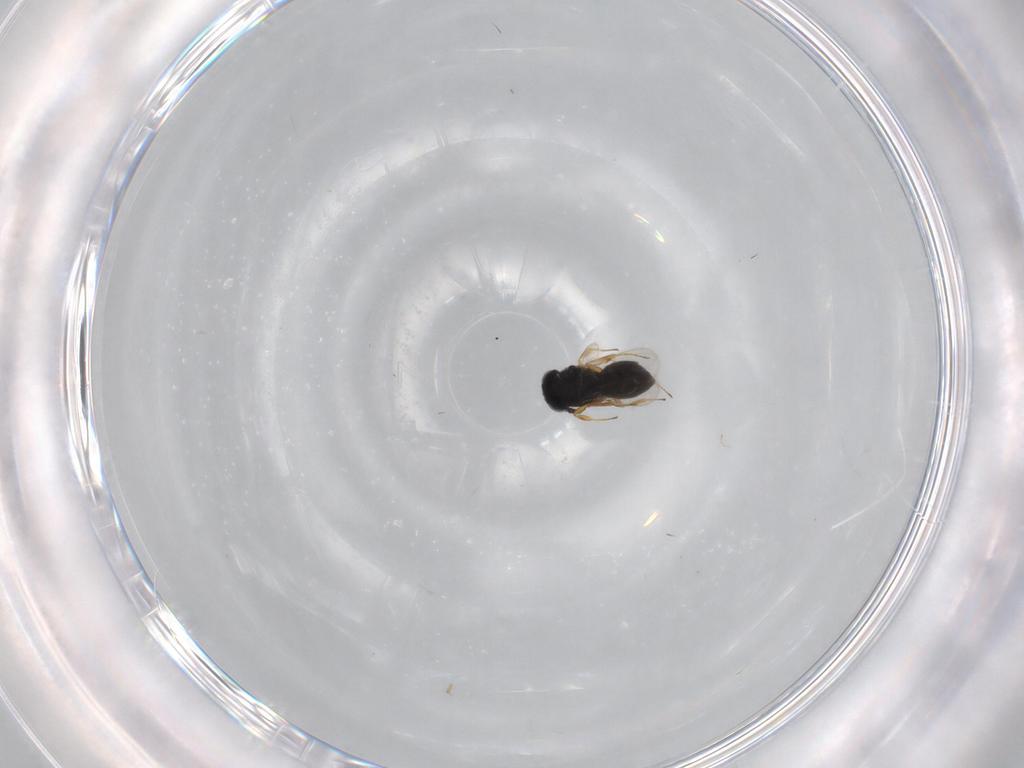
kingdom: Animalia
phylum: Arthropoda
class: Insecta
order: Hymenoptera
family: Scelionidae
